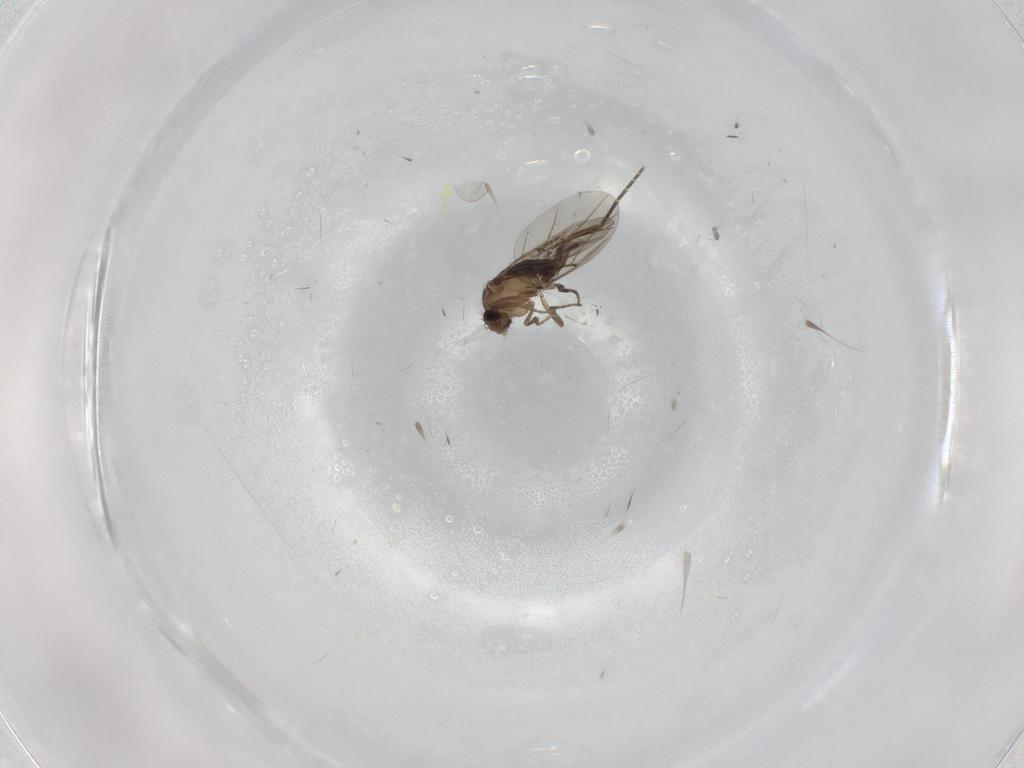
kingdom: Animalia
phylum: Arthropoda
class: Insecta
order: Diptera
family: Phoridae
